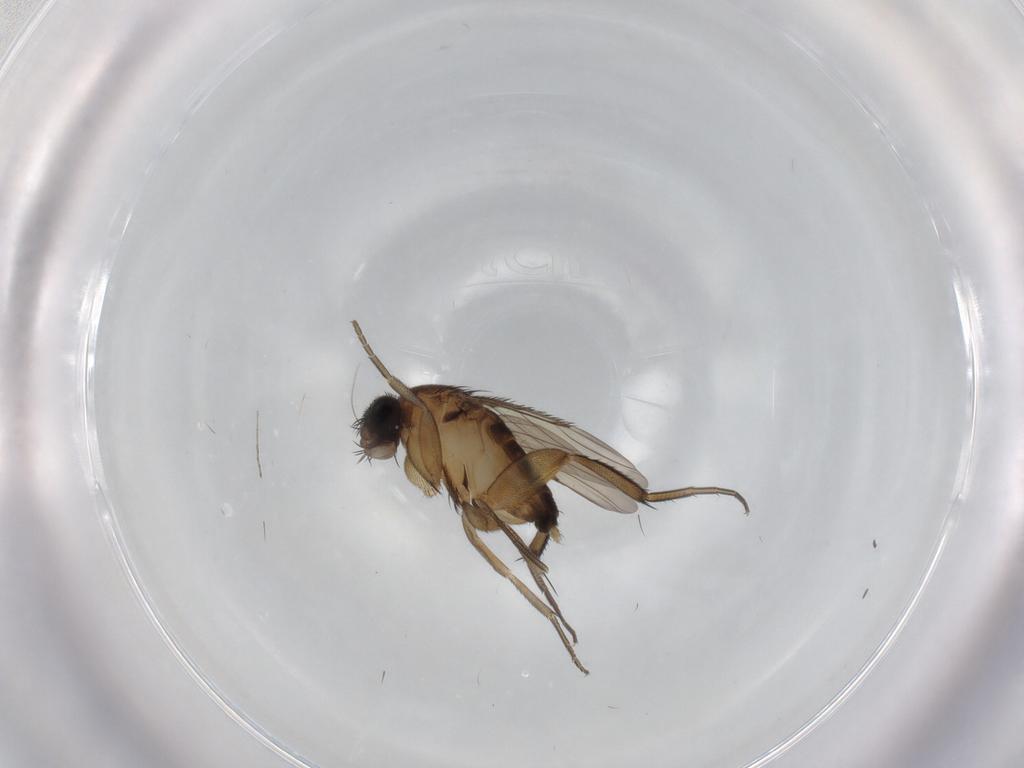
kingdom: Animalia
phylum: Arthropoda
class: Insecta
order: Diptera
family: Phoridae
